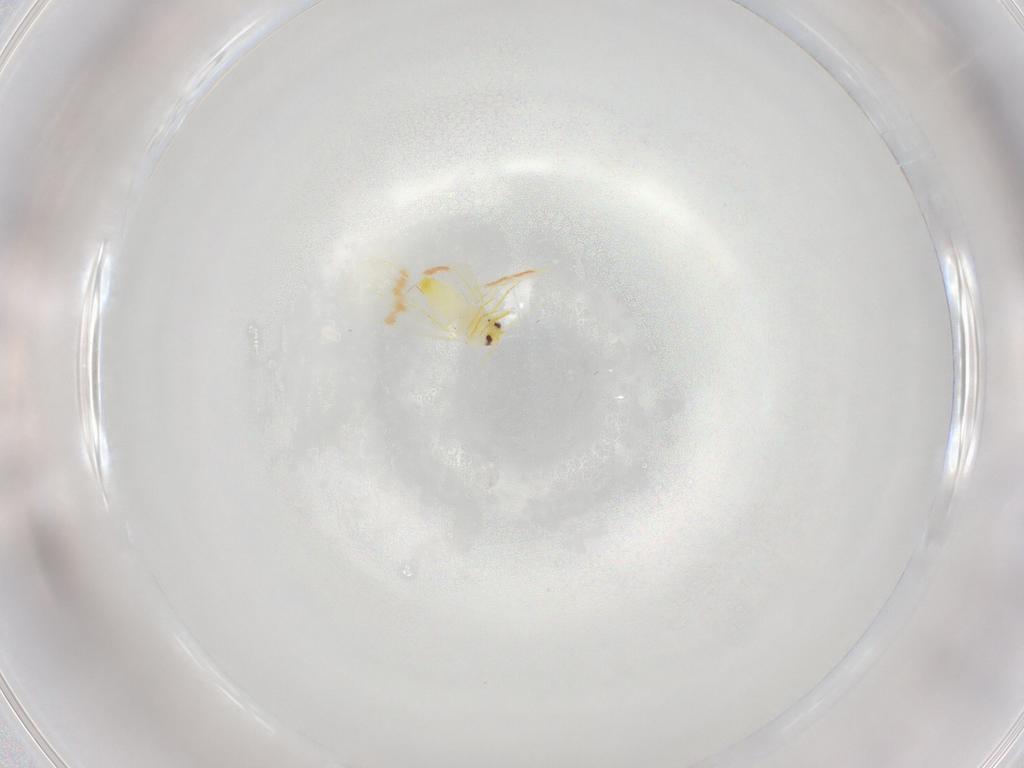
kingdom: Animalia
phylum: Arthropoda
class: Insecta
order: Hemiptera
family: Aleyrodidae
